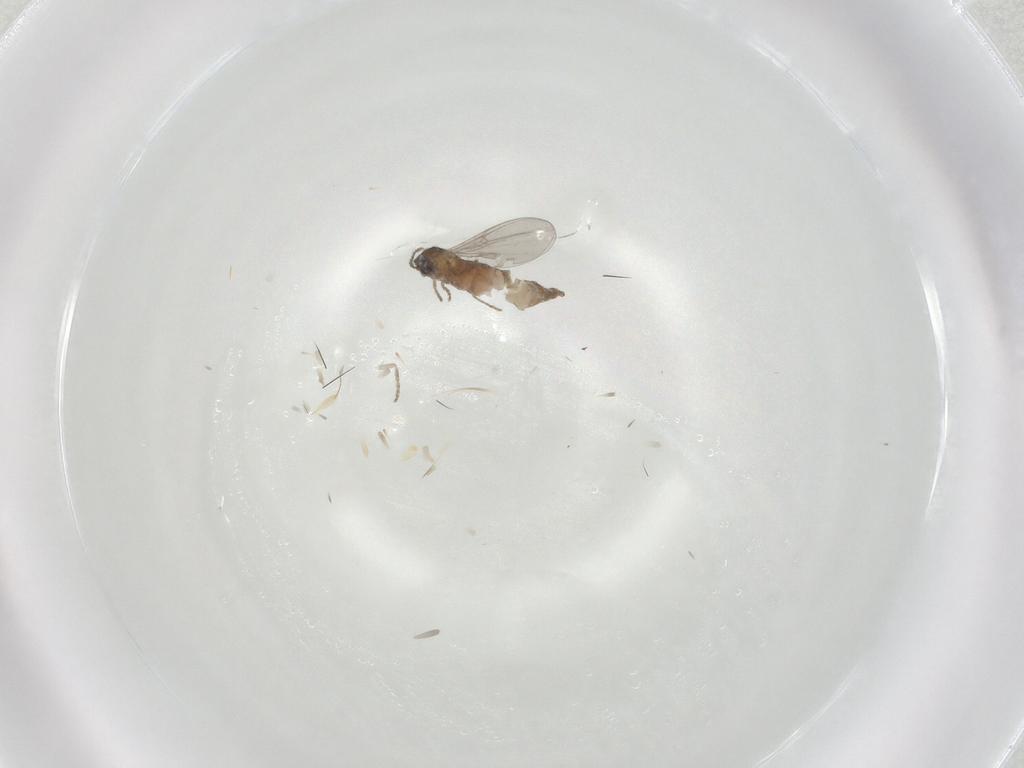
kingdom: Animalia
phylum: Arthropoda
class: Insecta
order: Diptera
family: Cecidomyiidae
